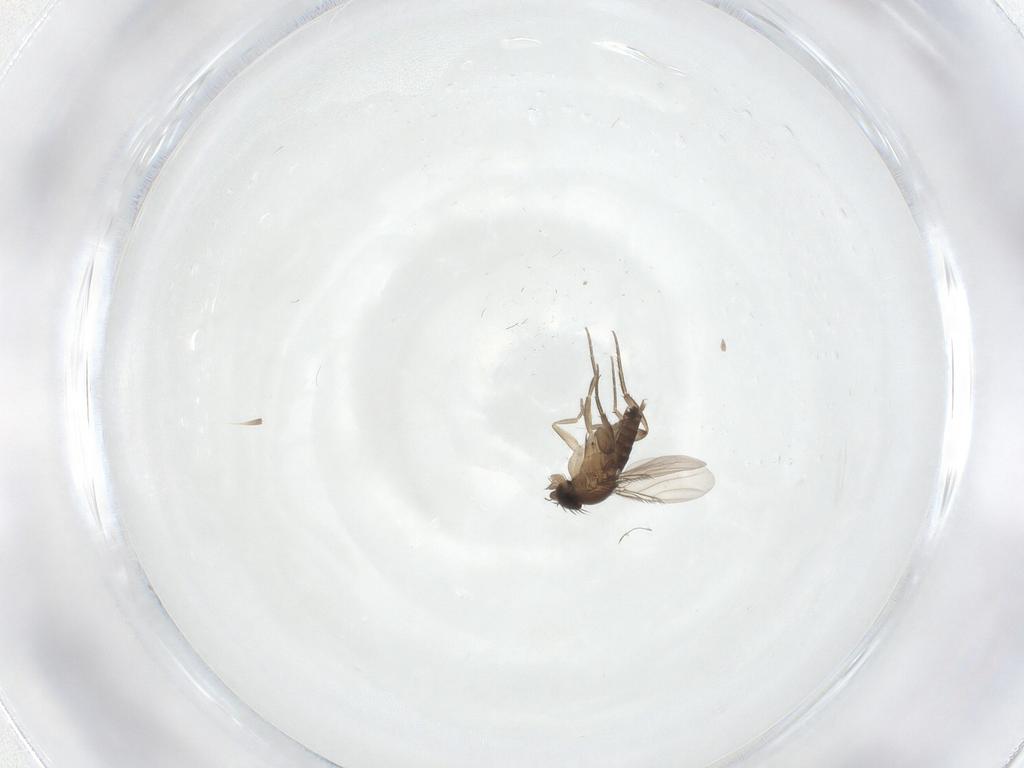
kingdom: Animalia
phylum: Arthropoda
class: Insecta
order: Diptera
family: Phoridae
